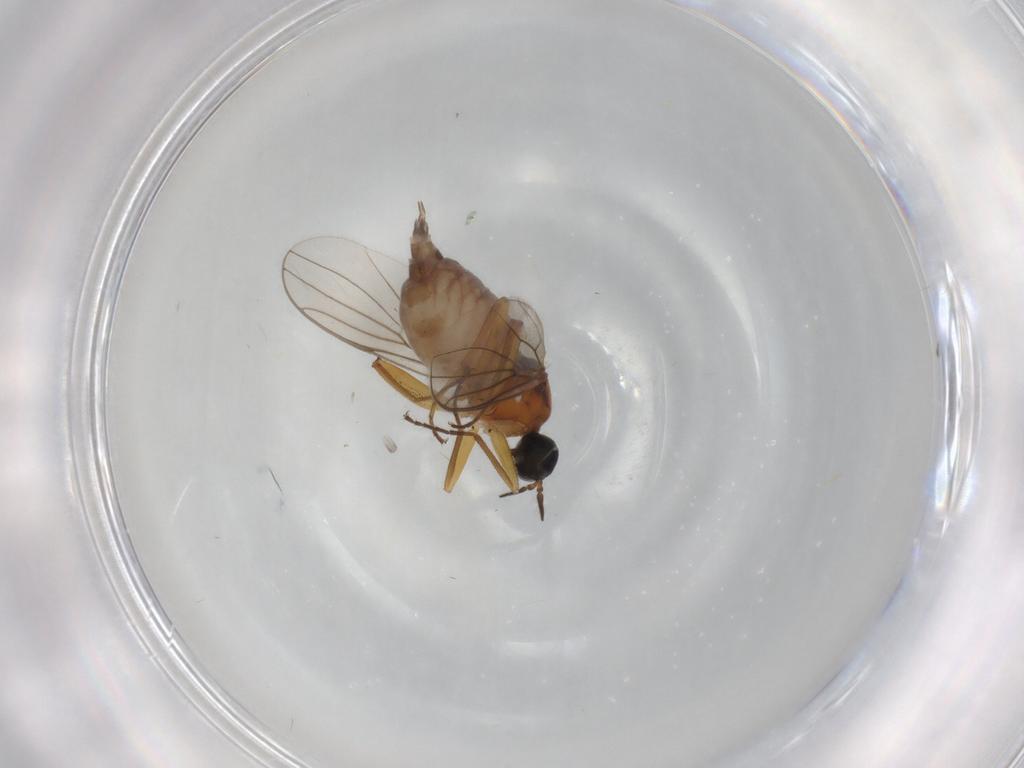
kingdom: Animalia
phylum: Arthropoda
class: Insecta
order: Diptera
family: Hybotidae
